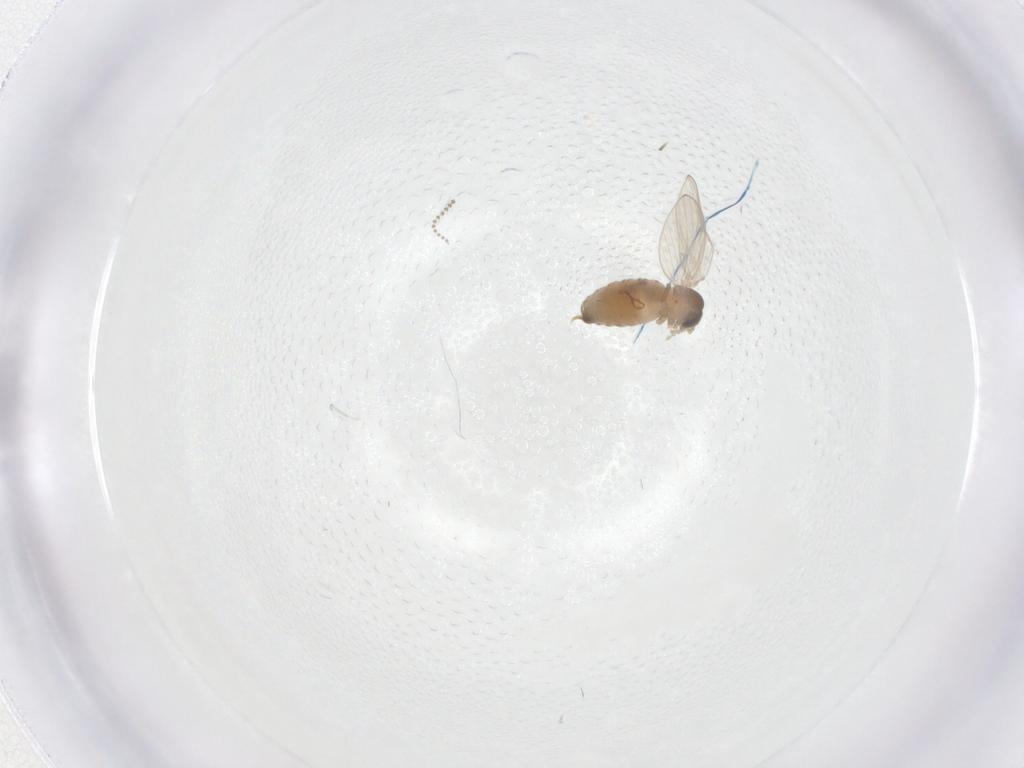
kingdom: Animalia
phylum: Arthropoda
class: Insecta
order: Diptera
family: Psychodidae
